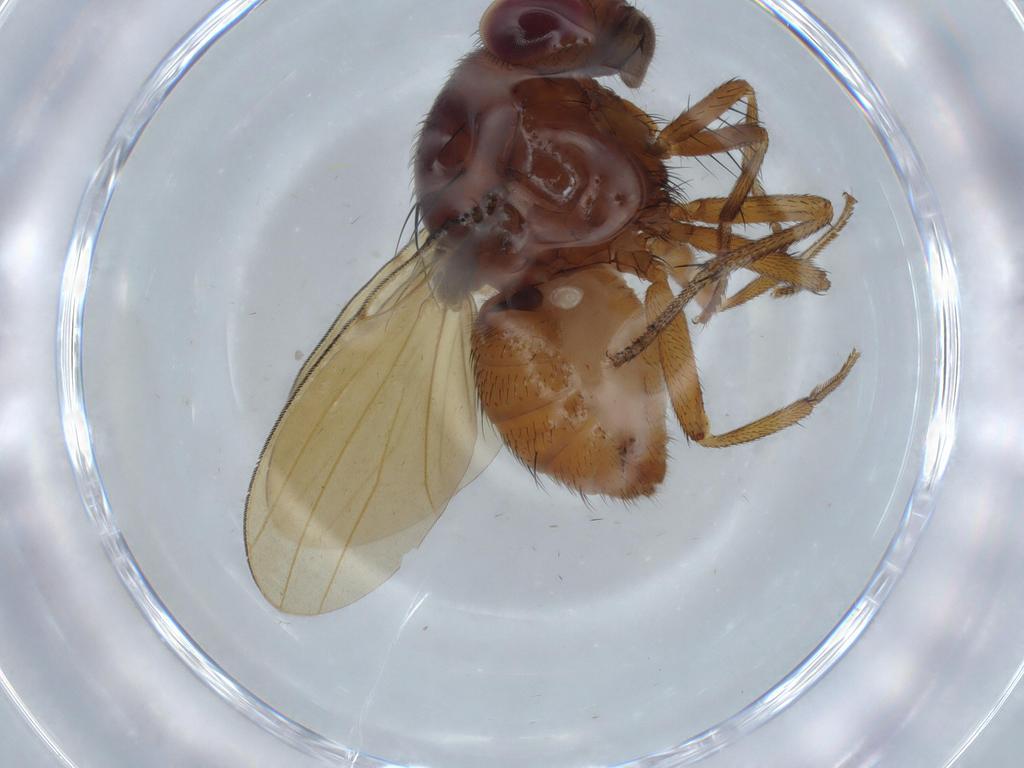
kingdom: Animalia
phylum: Arthropoda
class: Insecta
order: Diptera
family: Lauxaniidae
